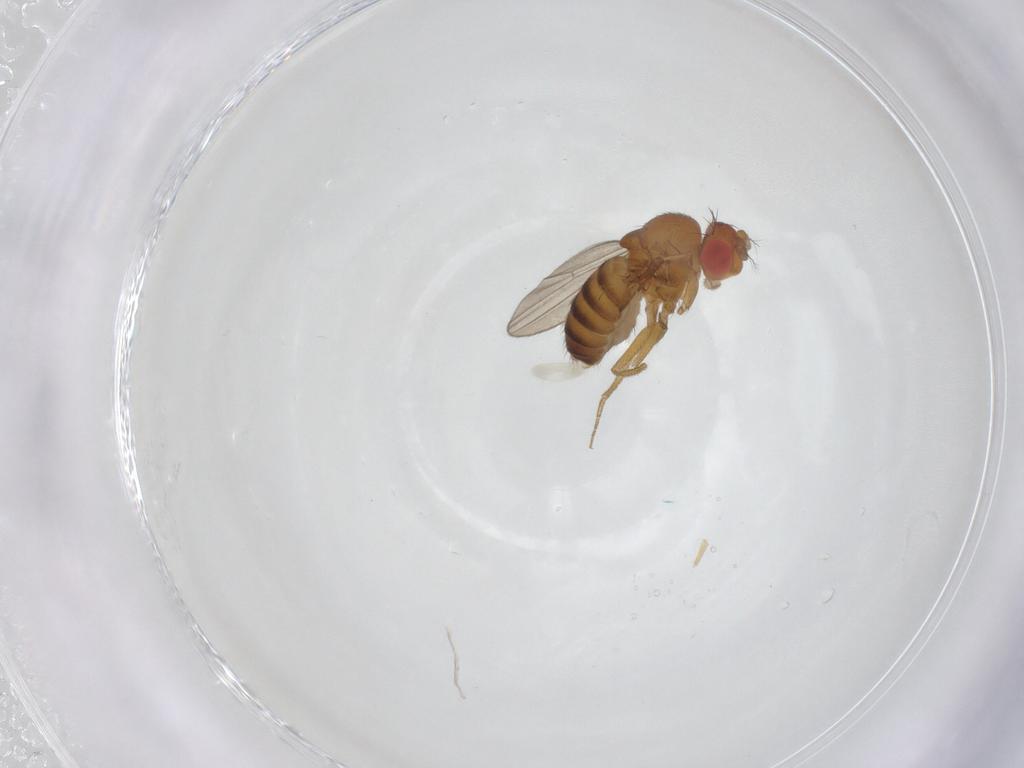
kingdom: Animalia
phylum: Arthropoda
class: Insecta
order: Diptera
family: Drosophilidae
